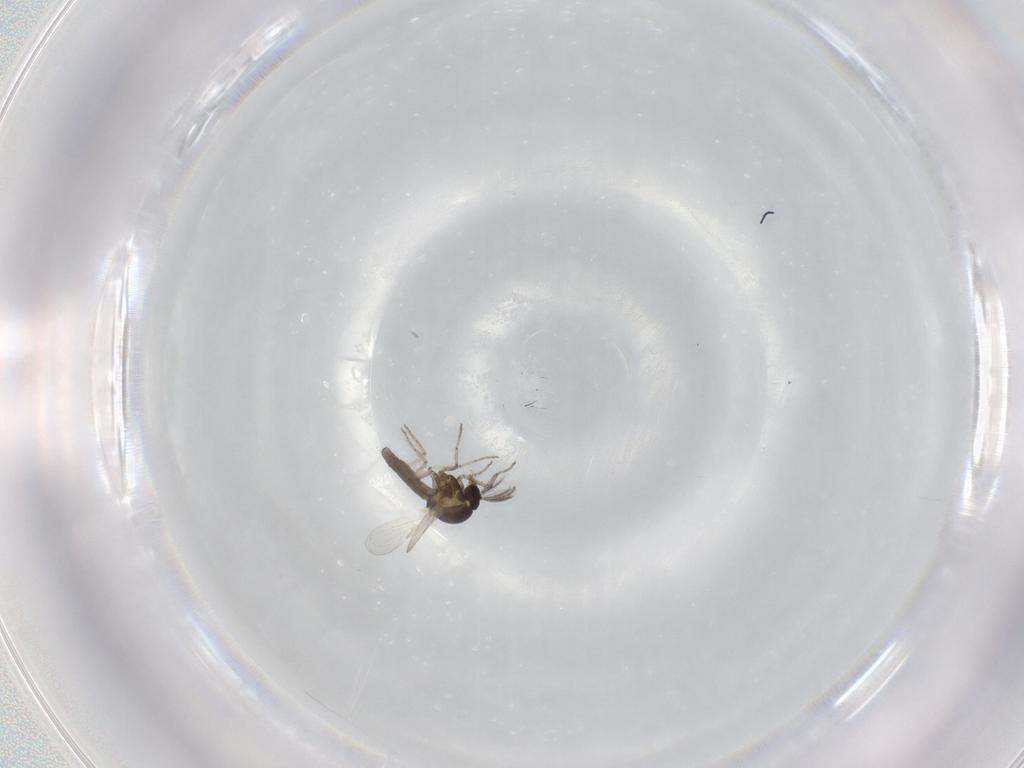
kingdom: Animalia
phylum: Arthropoda
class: Insecta
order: Diptera
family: Ceratopogonidae
